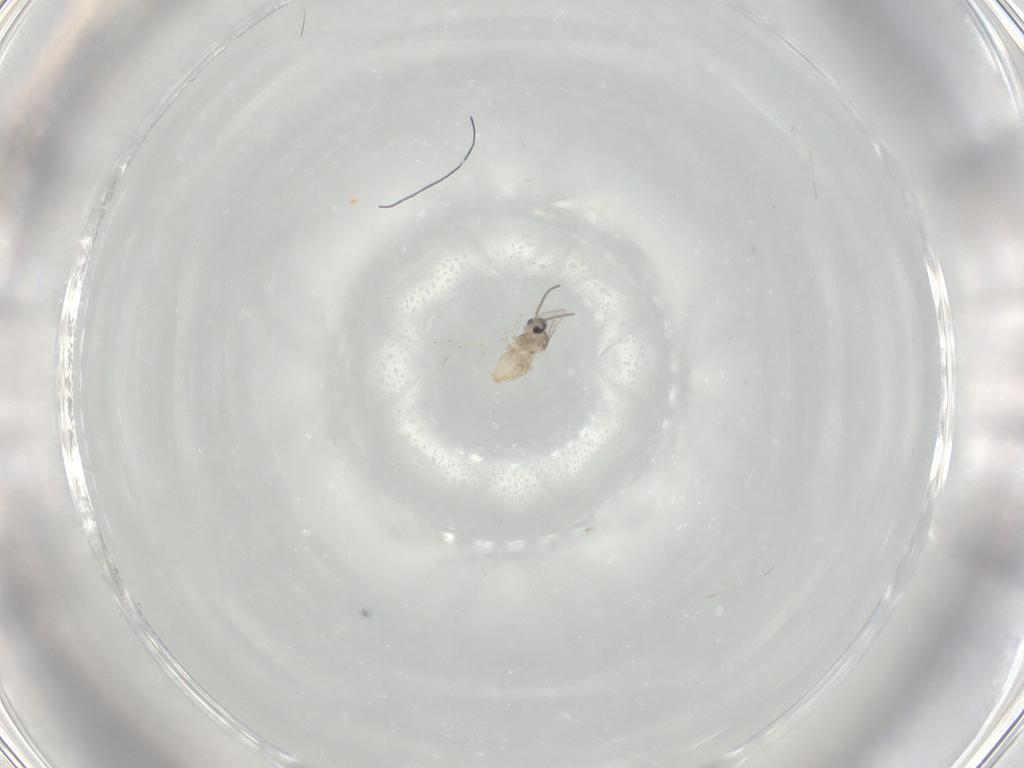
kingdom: Animalia
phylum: Arthropoda
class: Insecta
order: Diptera
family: Cecidomyiidae
